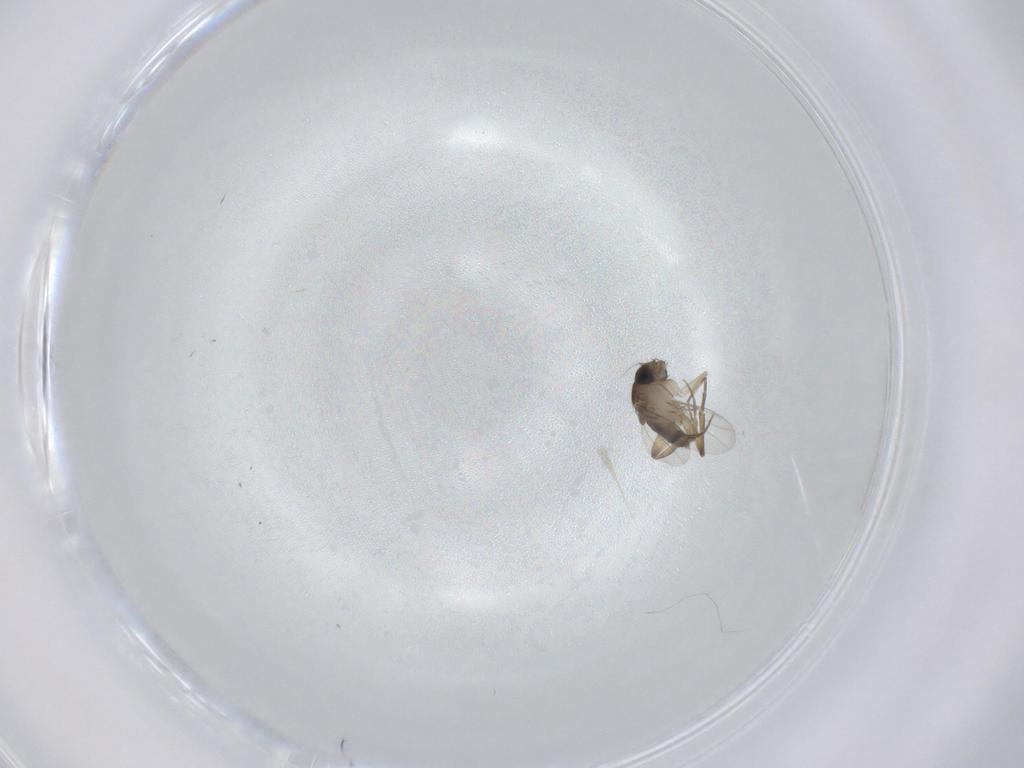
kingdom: Animalia
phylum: Arthropoda
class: Insecta
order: Diptera
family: Phoridae
